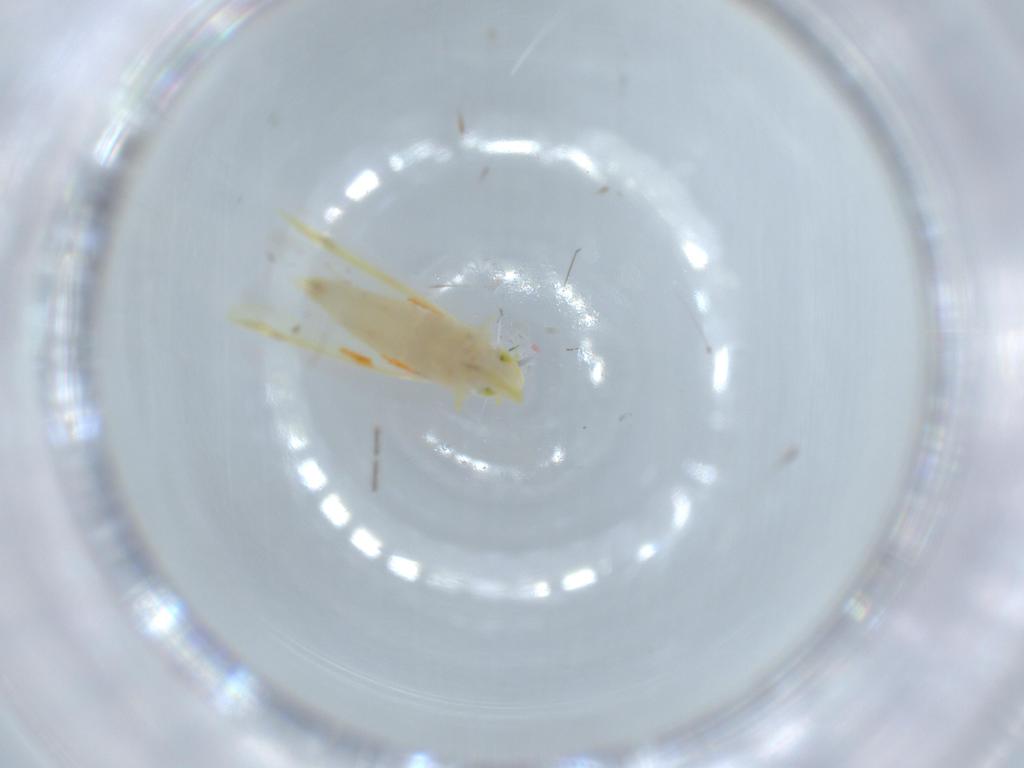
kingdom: Animalia
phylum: Arthropoda
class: Insecta
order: Hemiptera
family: Cicadellidae
